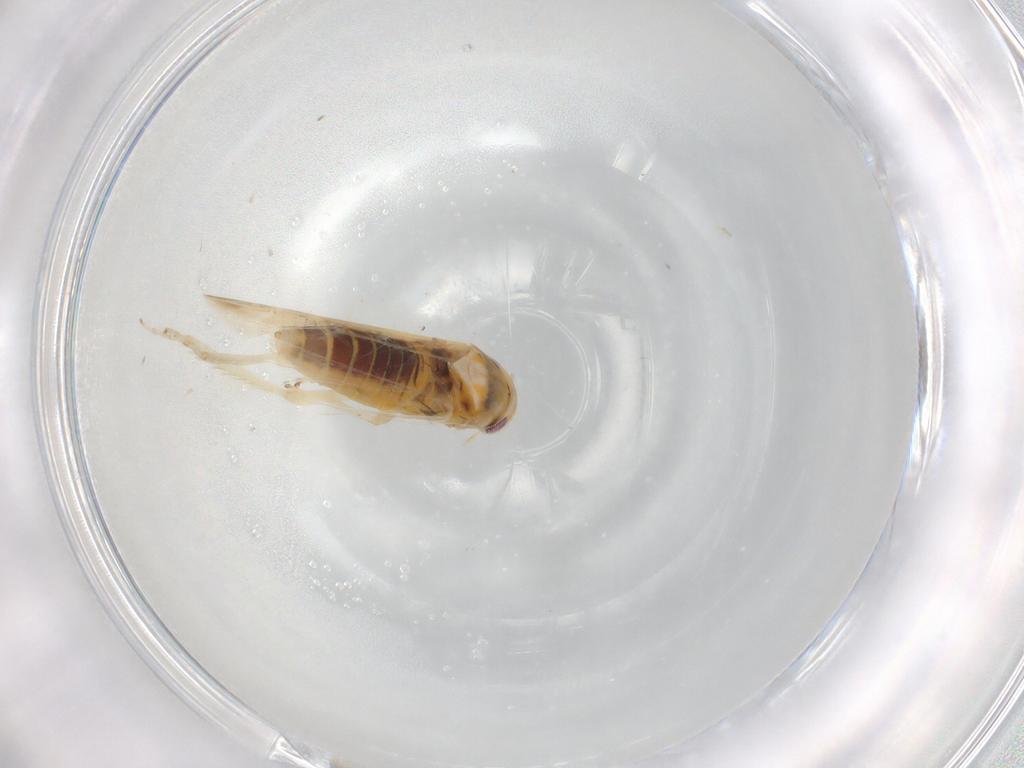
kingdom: Animalia
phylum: Arthropoda
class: Insecta
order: Hemiptera
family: Cicadellidae
